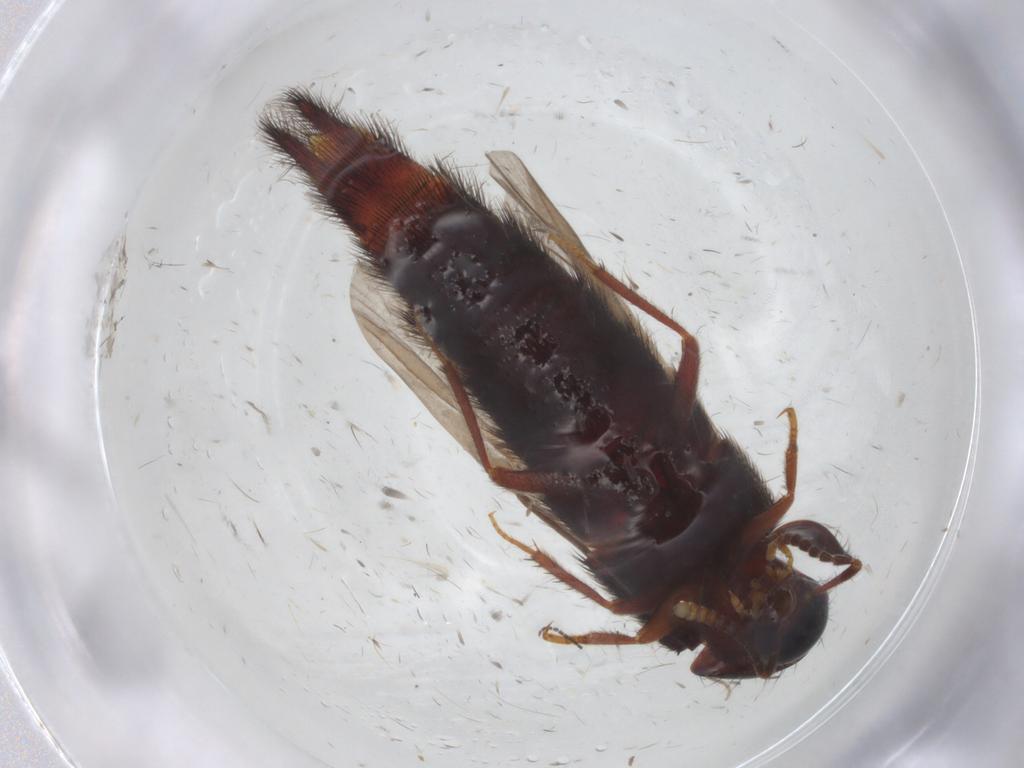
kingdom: Animalia
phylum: Arthropoda
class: Insecta
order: Coleoptera
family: Staphylinidae
